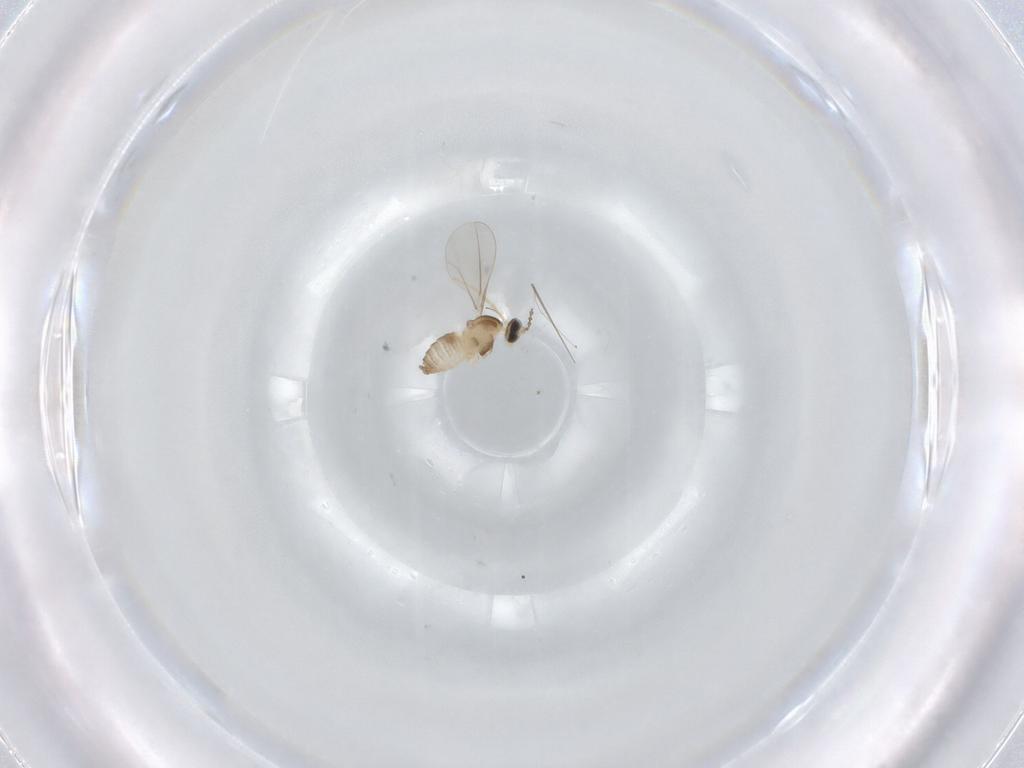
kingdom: Animalia
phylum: Arthropoda
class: Insecta
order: Diptera
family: Cecidomyiidae
